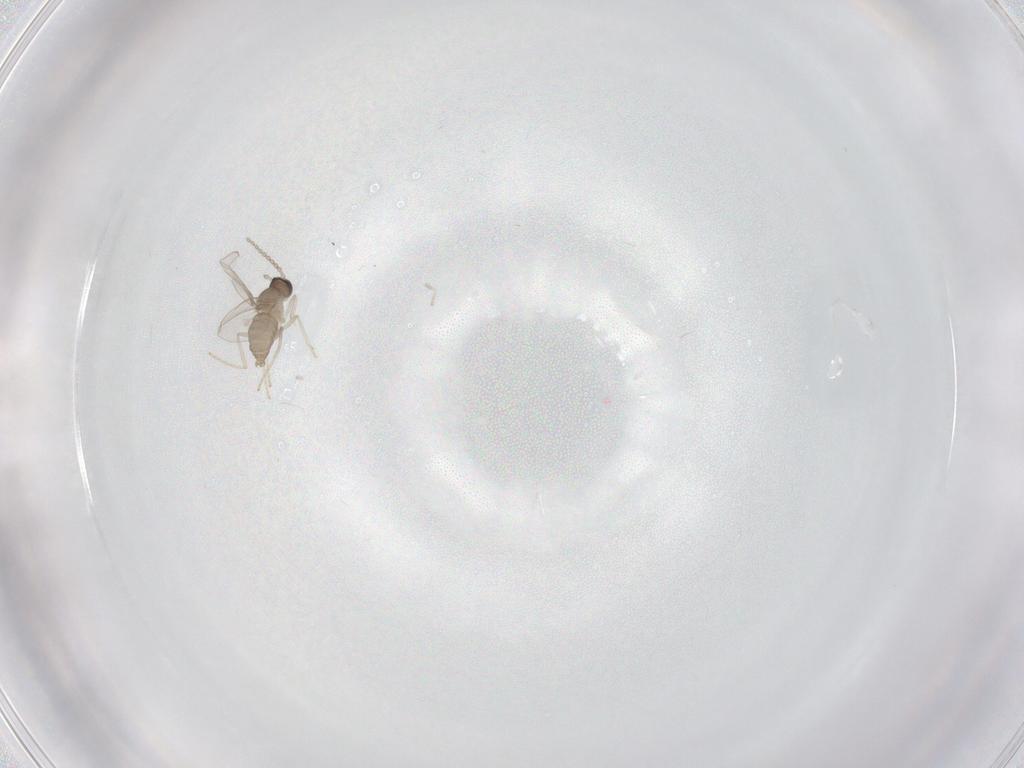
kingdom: Animalia
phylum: Arthropoda
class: Insecta
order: Diptera
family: Cecidomyiidae
